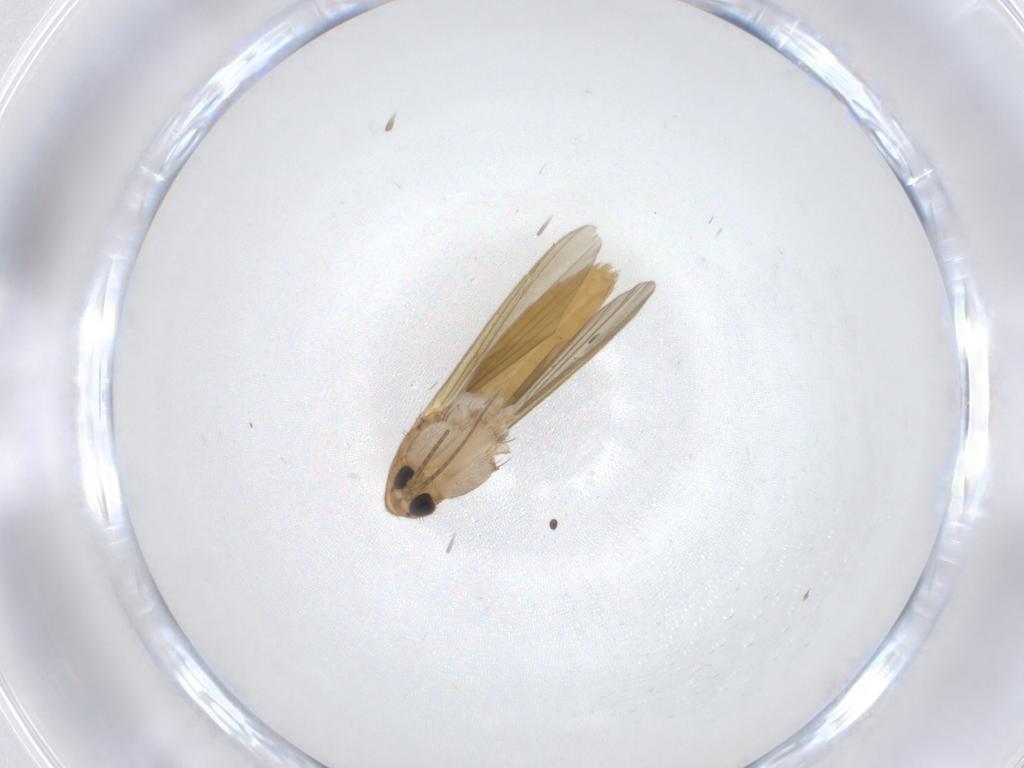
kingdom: Animalia
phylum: Arthropoda
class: Insecta
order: Diptera
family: Mycetophilidae
